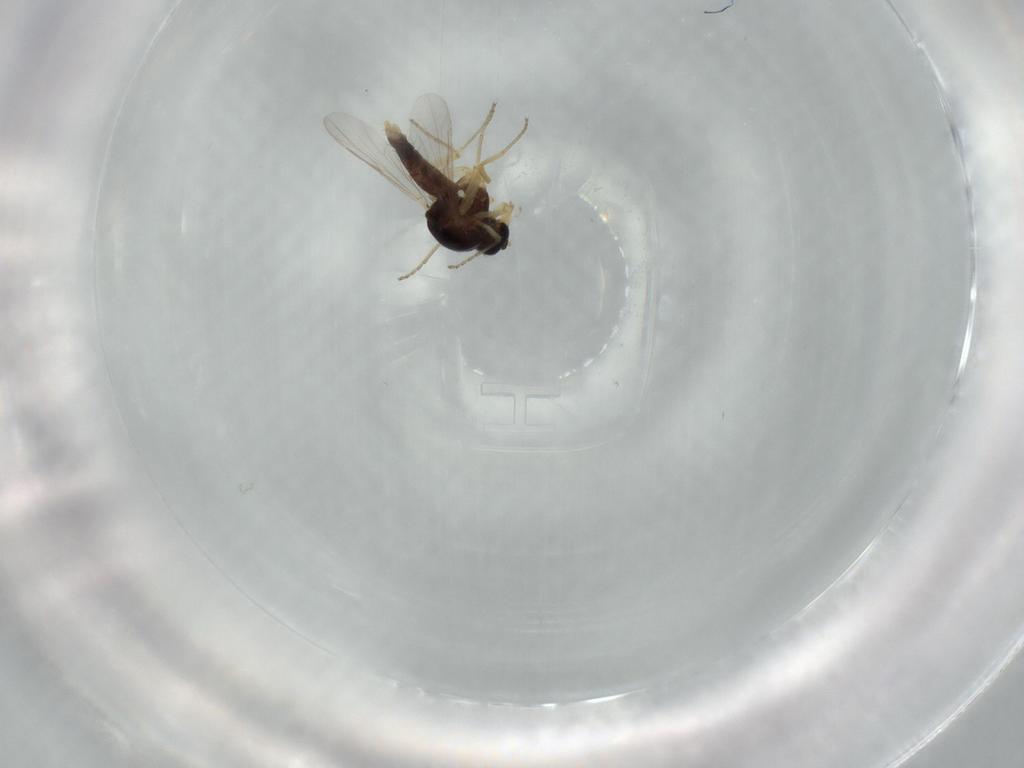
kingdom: Animalia
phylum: Arthropoda
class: Insecta
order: Diptera
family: Ceratopogonidae
